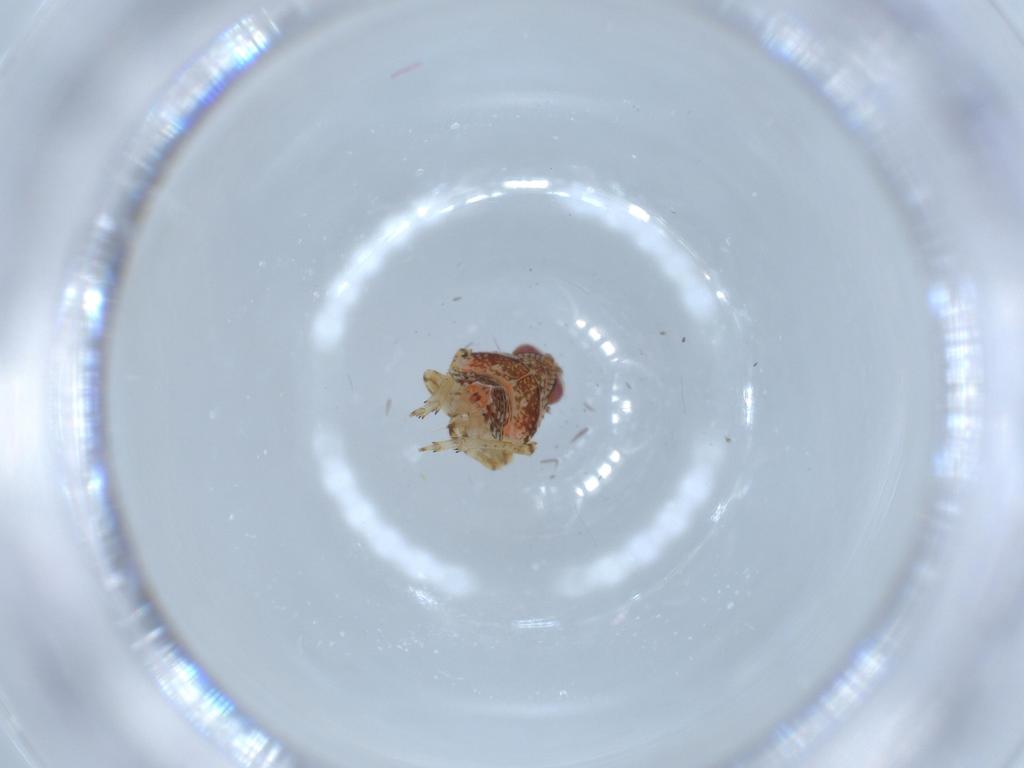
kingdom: Animalia
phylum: Arthropoda
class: Insecta
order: Hemiptera
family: Issidae
